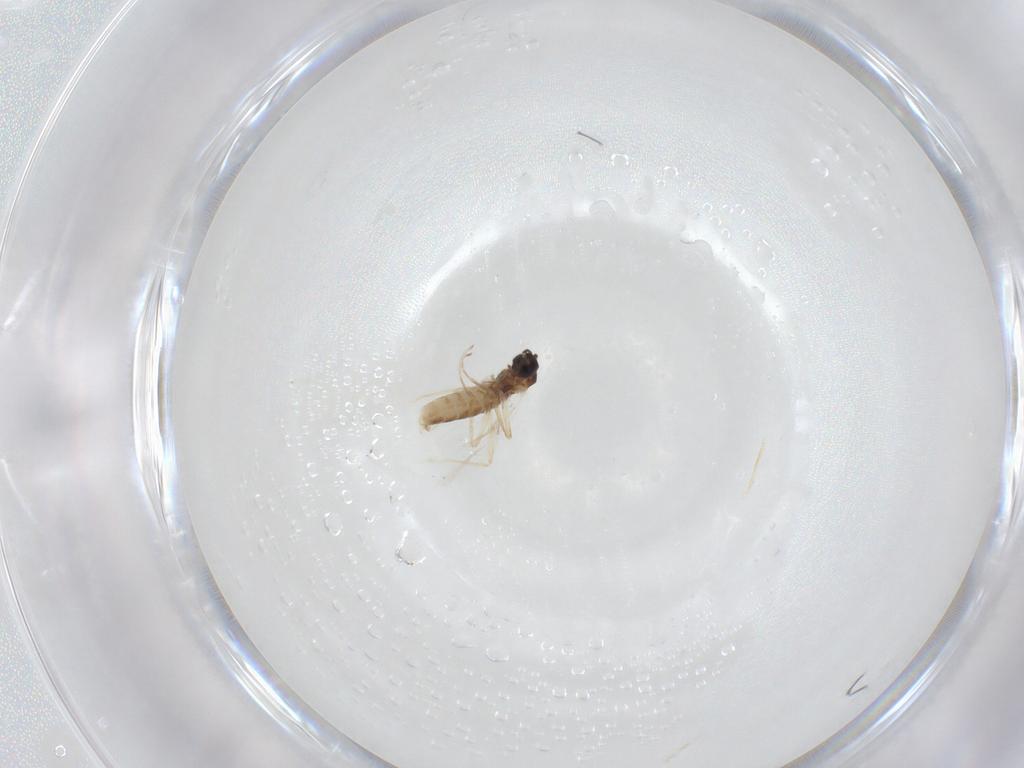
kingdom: Animalia
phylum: Arthropoda
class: Insecta
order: Diptera
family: Cecidomyiidae
